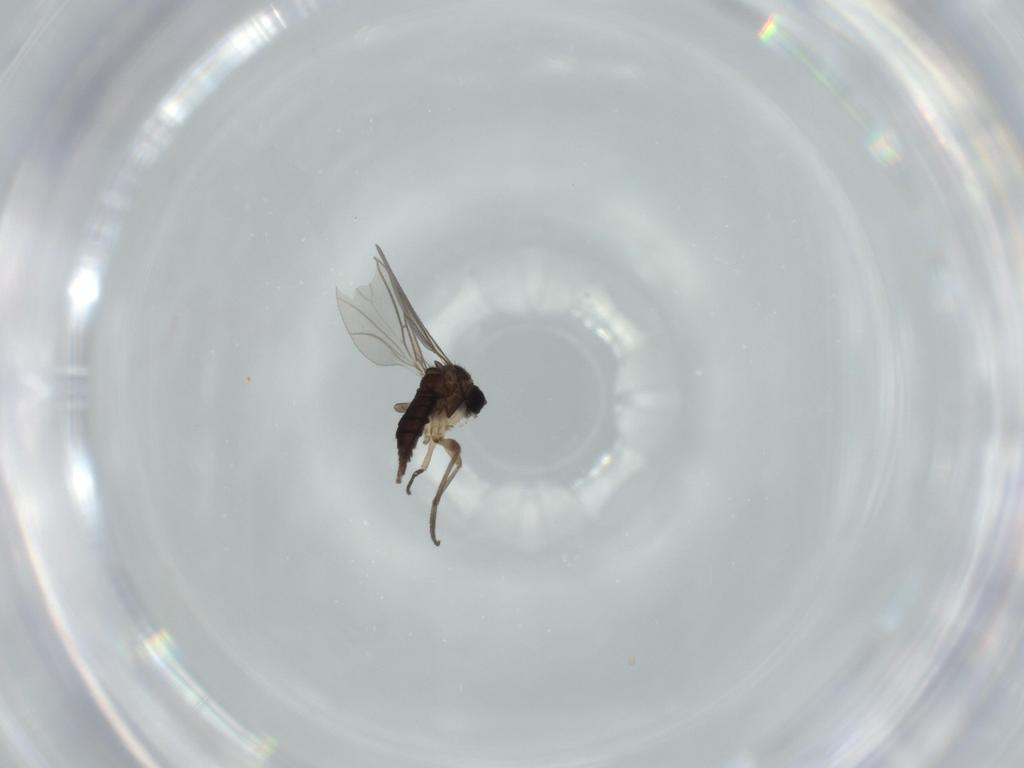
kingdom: Animalia
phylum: Arthropoda
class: Insecta
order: Diptera
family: Sciaridae
